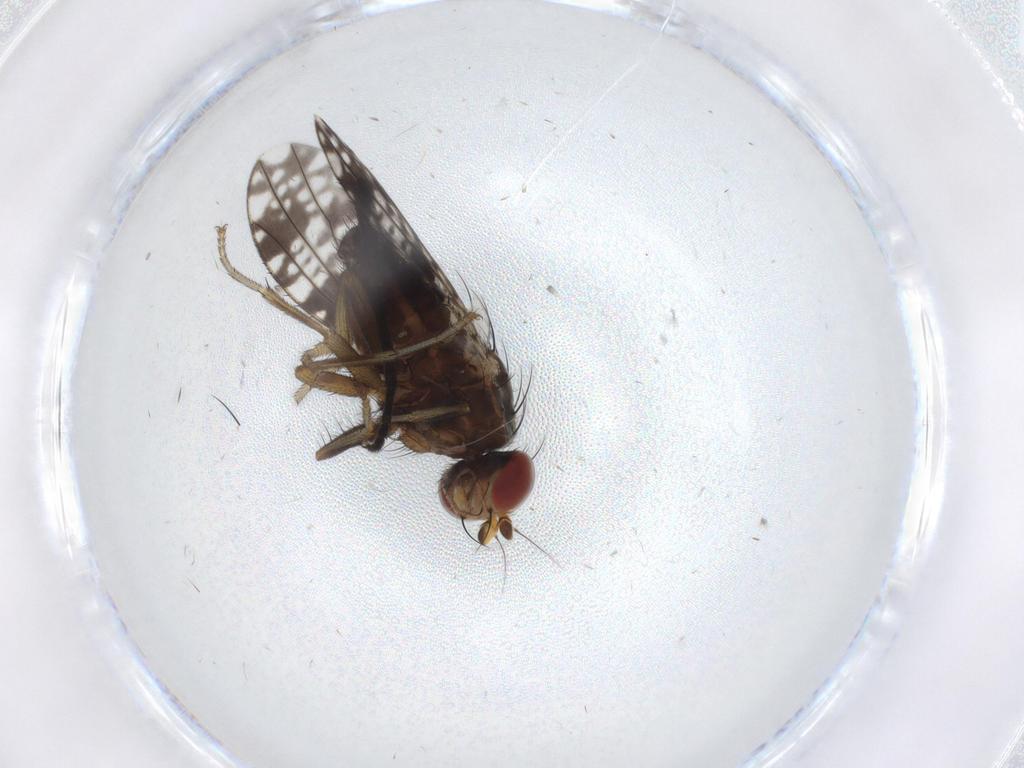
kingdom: Animalia
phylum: Arthropoda
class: Insecta
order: Diptera
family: Tephritidae
